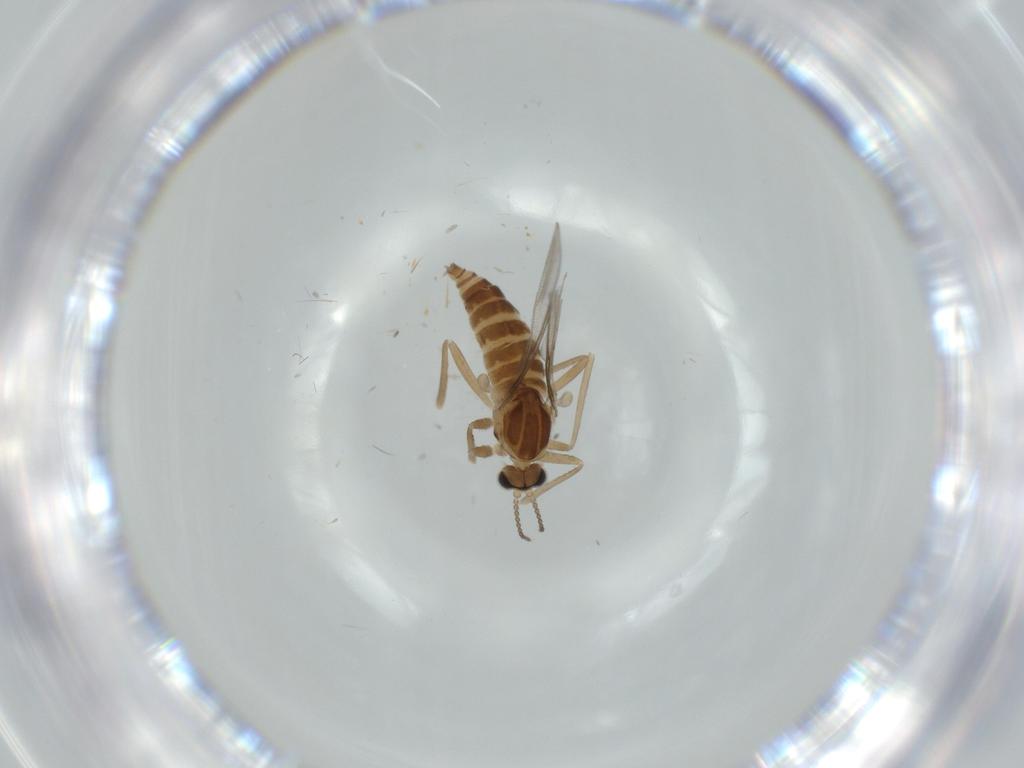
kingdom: Animalia
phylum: Arthropoda
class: Insecta
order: Diptera
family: Cecidomyiidae
